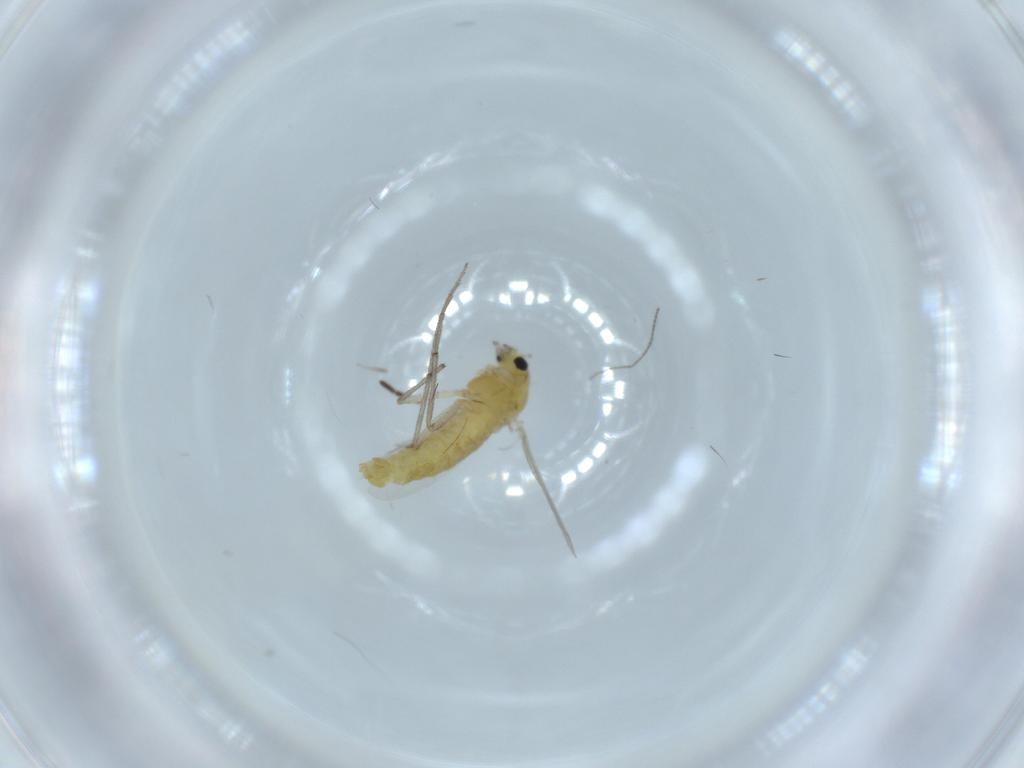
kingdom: Animalia
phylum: Arthropoda
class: Insecta
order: Diptera
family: Chironomidae
